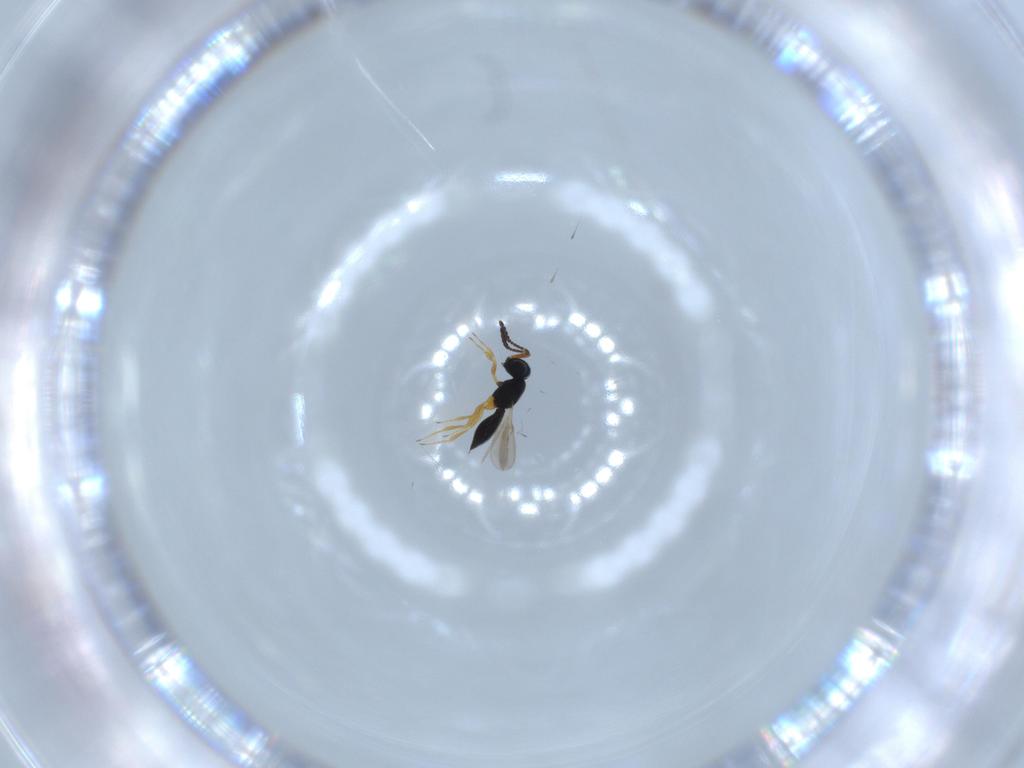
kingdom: Animalia
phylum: Arthropoda
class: Insecta
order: Hymenoptera
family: Scelionidae
